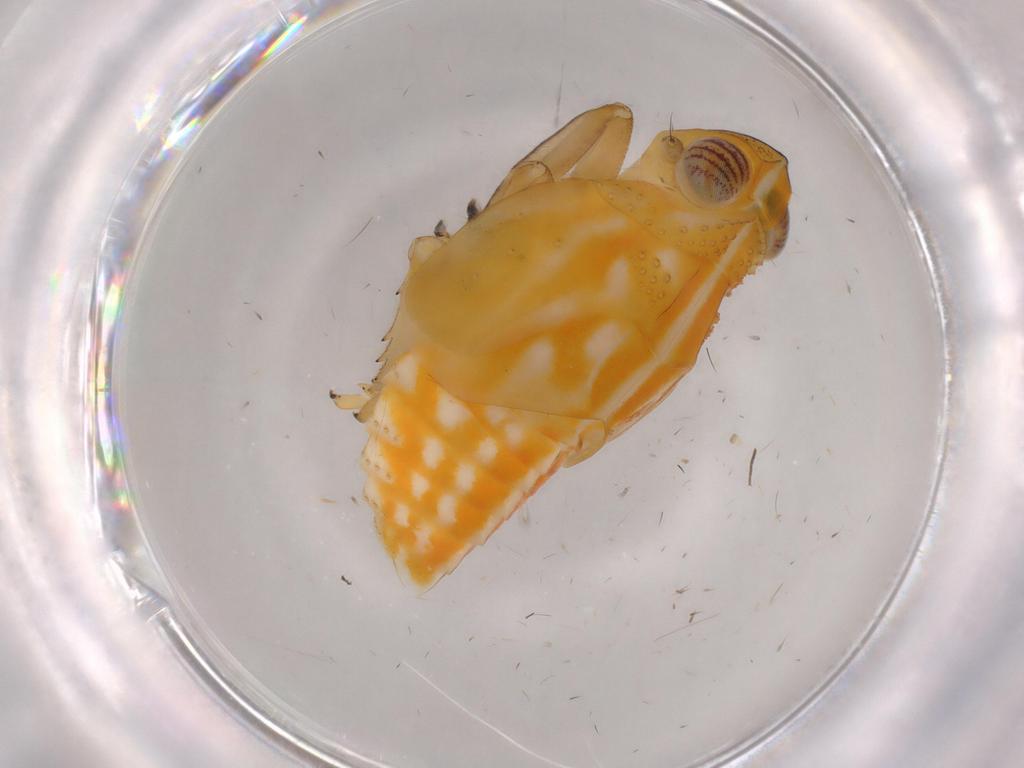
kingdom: Animalia
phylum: Arthropoda
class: Insecta
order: Hemiptera
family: Issidae
